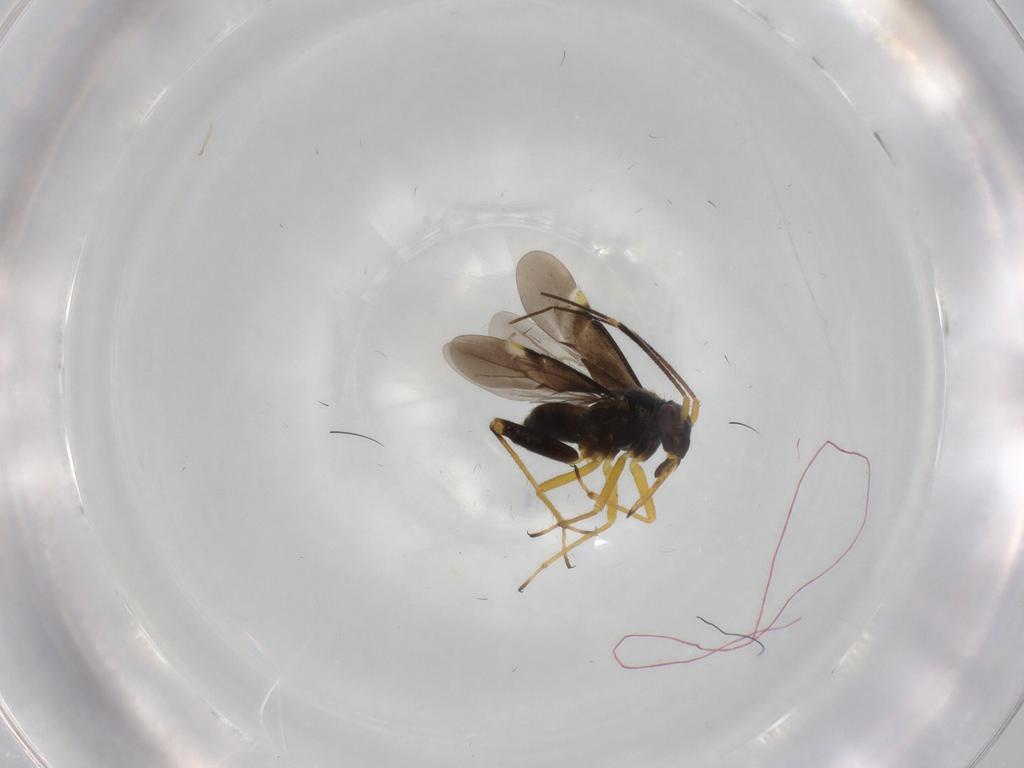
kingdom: Animalia
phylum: Arthropoda
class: Insecta
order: Hemiptera
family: Miridae
